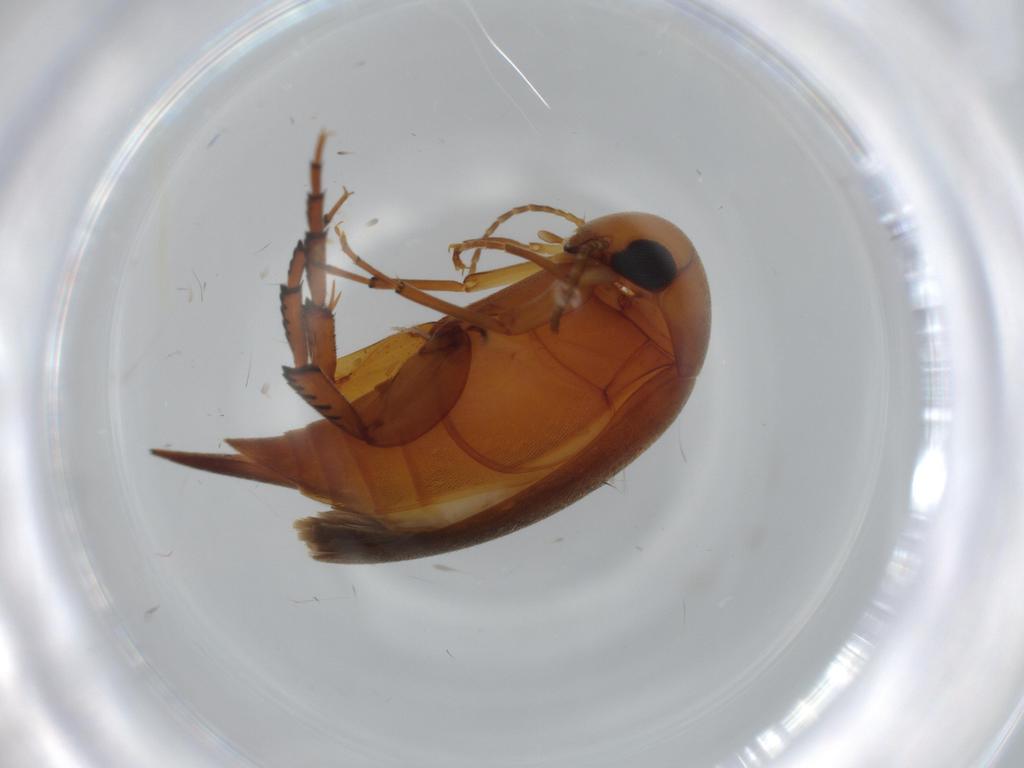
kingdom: Animalia
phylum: Arthropoda
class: Insecta
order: Coleoptera
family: Mordellidae
